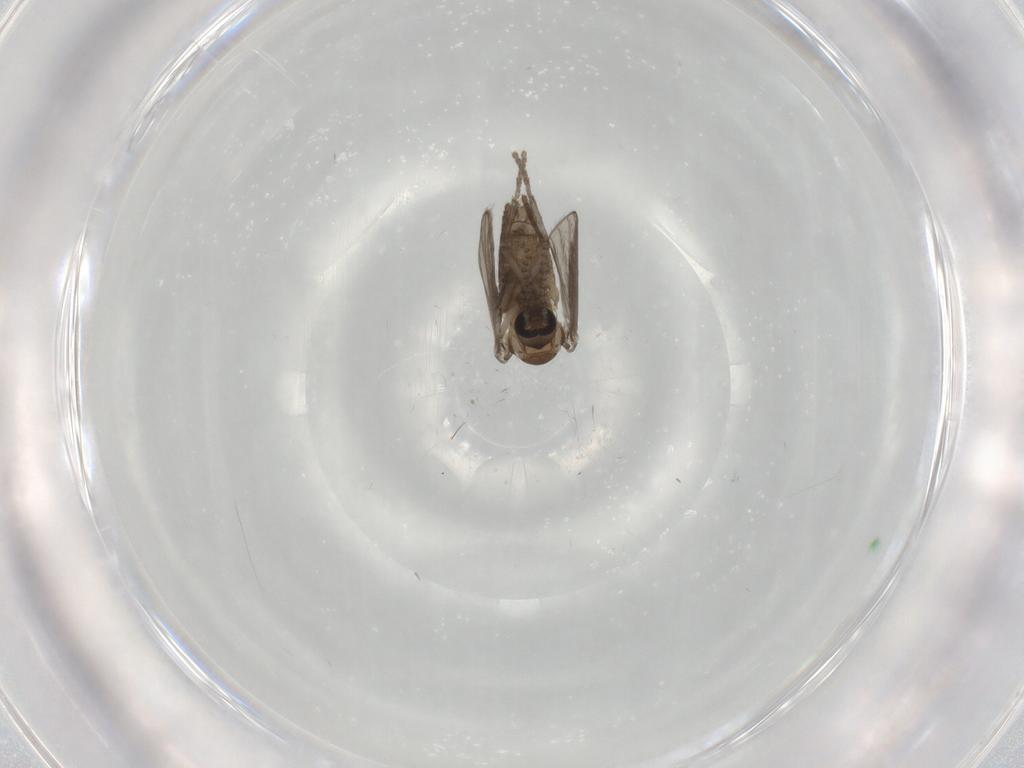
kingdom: Animalia
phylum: Arthropoda
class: Insecta
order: Diptera
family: Psychodidae
